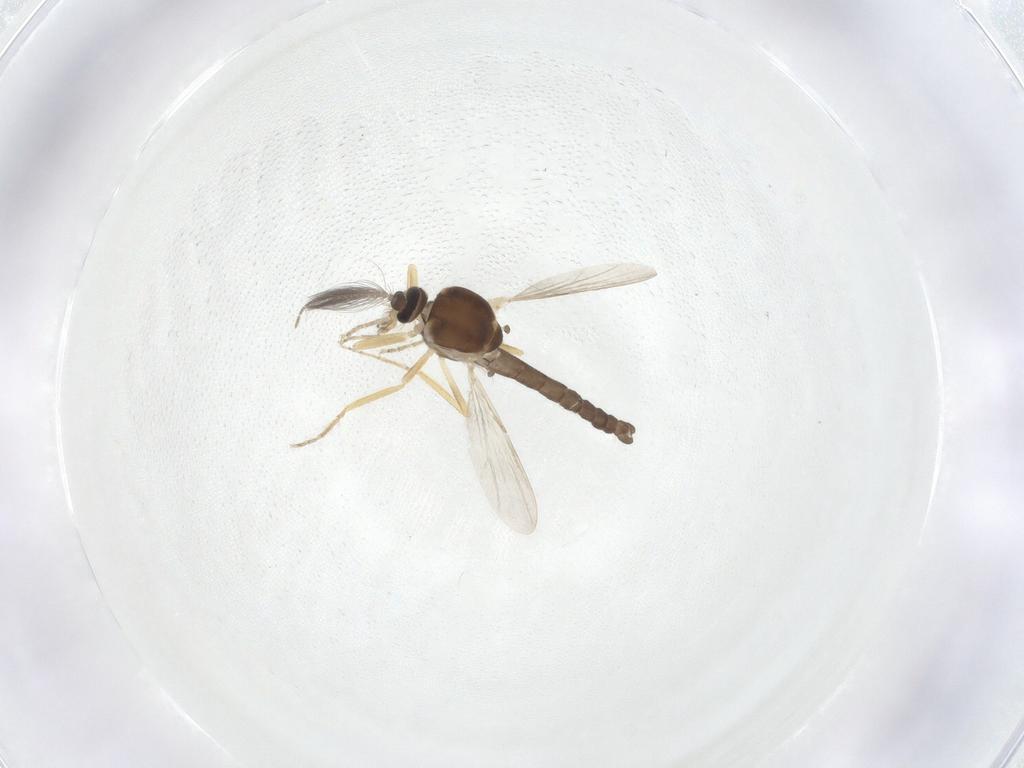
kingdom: Animalia
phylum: Arthropoda
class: Insecta
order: Diptera
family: Ceratopogonidae
